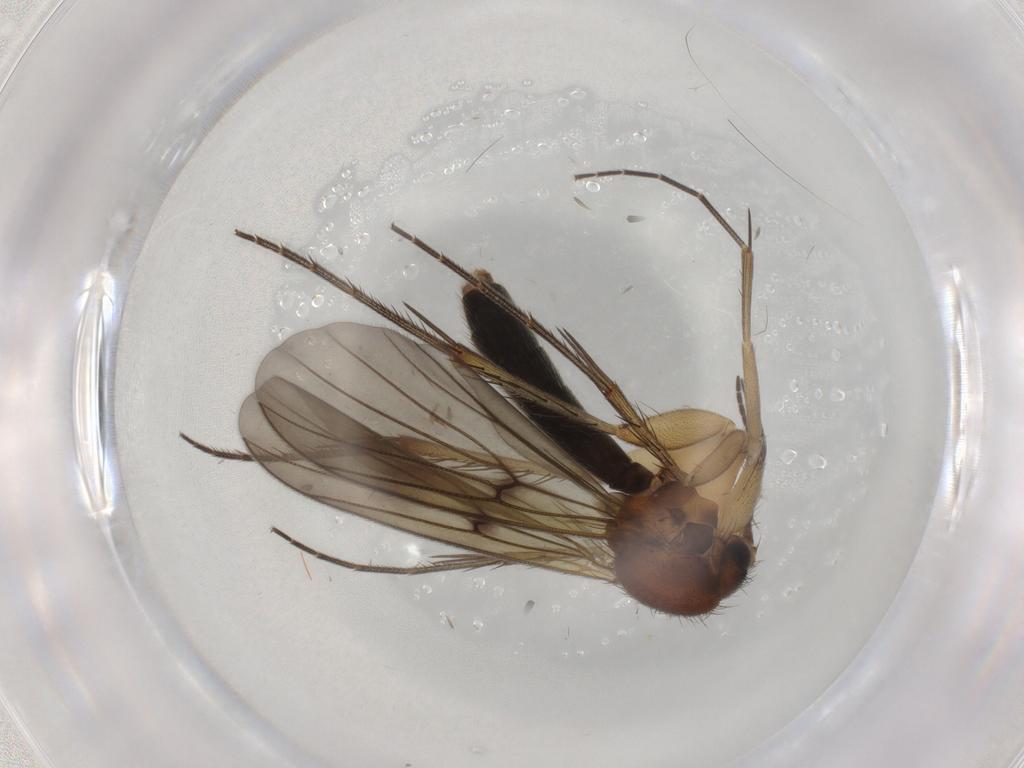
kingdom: Animalia
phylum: Arthropoda
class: Insecta
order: Diptera
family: Mycetophilidae
